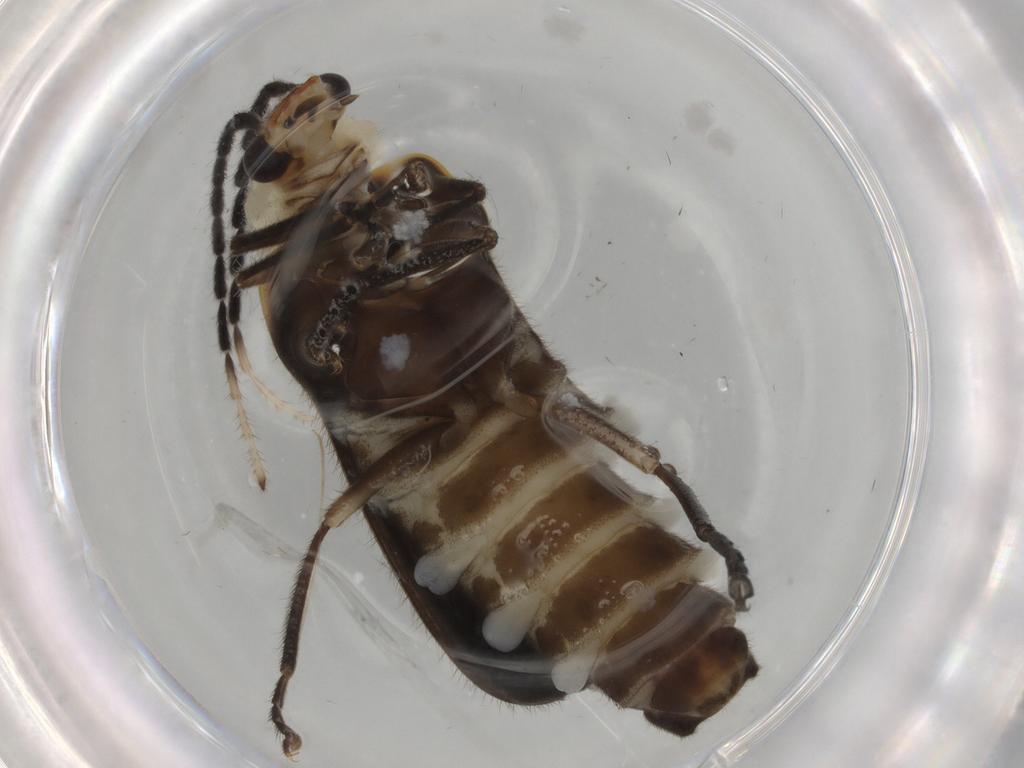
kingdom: Animalia
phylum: Arthropoda
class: Insecta
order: Coleoptera
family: Cantharidae
